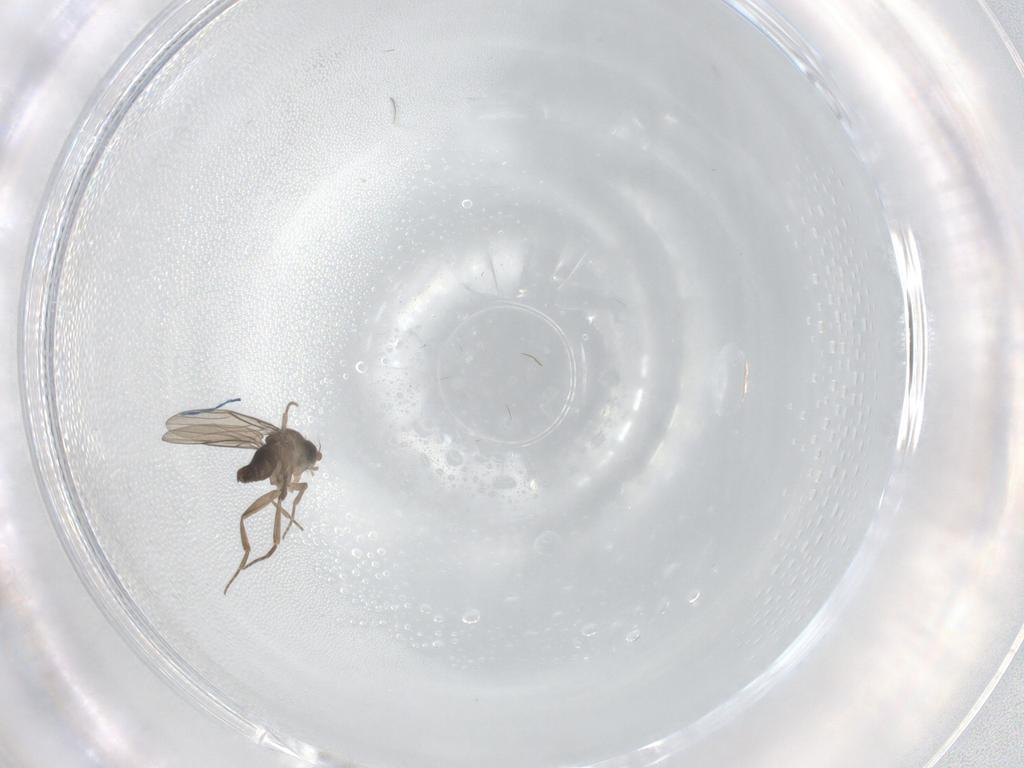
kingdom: Animalia
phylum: Arthropoda
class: Insecta
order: Diptera
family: Phoridae
